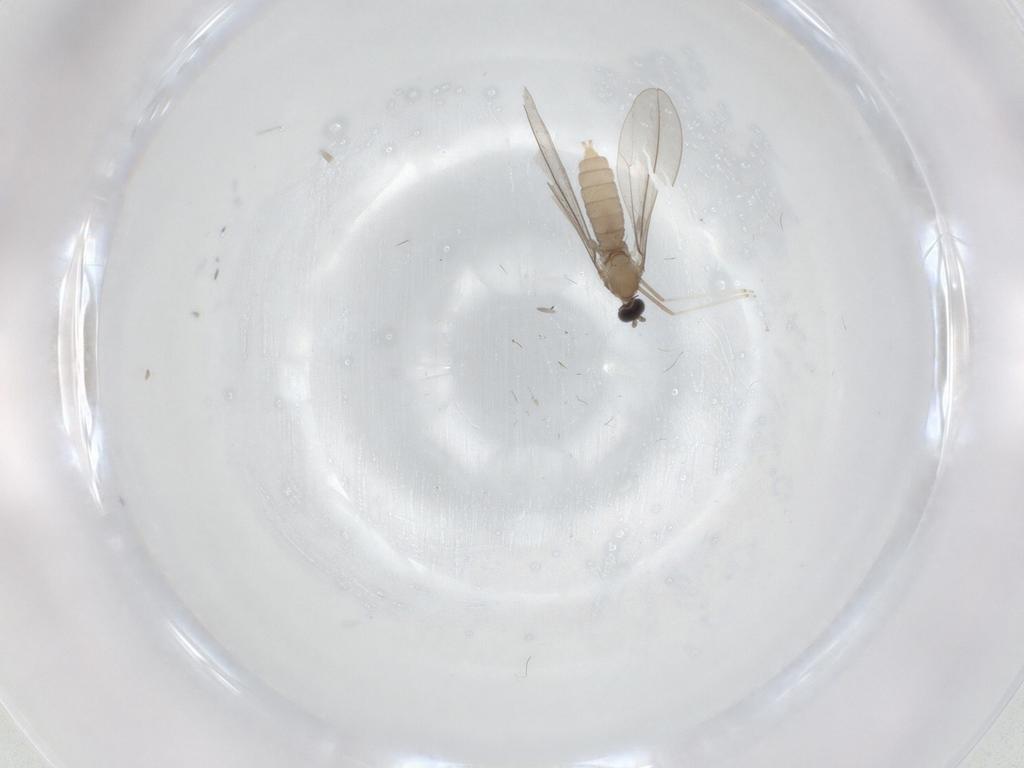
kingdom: Animalia
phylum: Arthropoda
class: Insecta
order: Diptera
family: Cecidomyiidae
